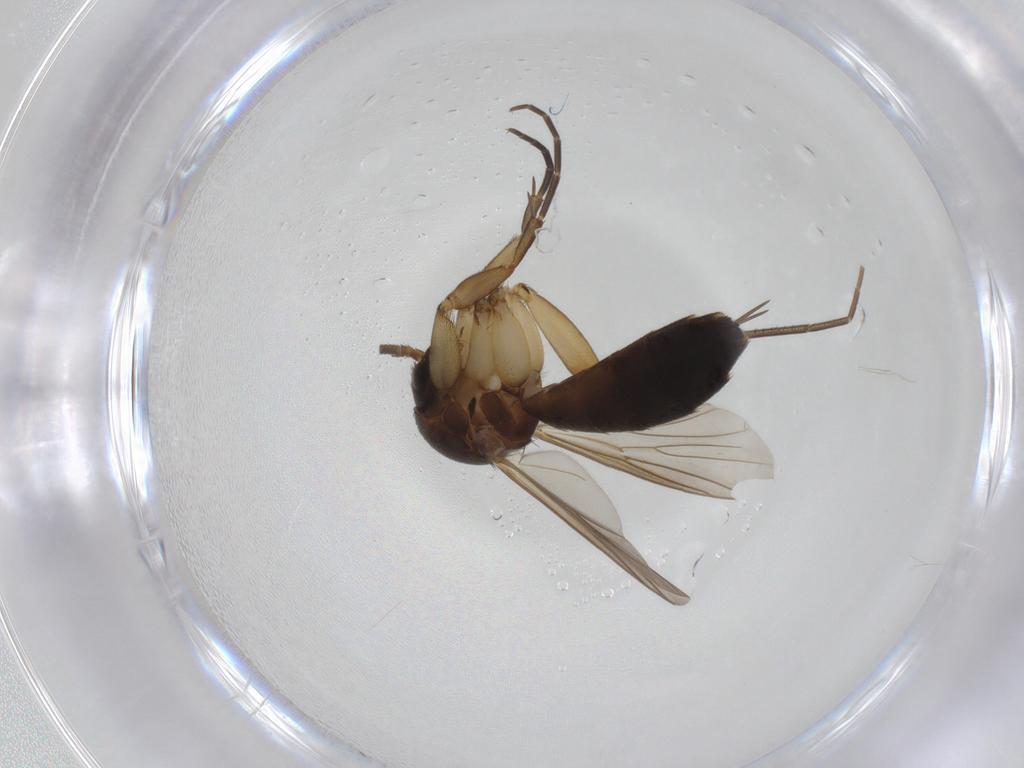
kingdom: Animalia
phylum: Arthropoda
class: Insecta
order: Diptera
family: Mycetophilidae
